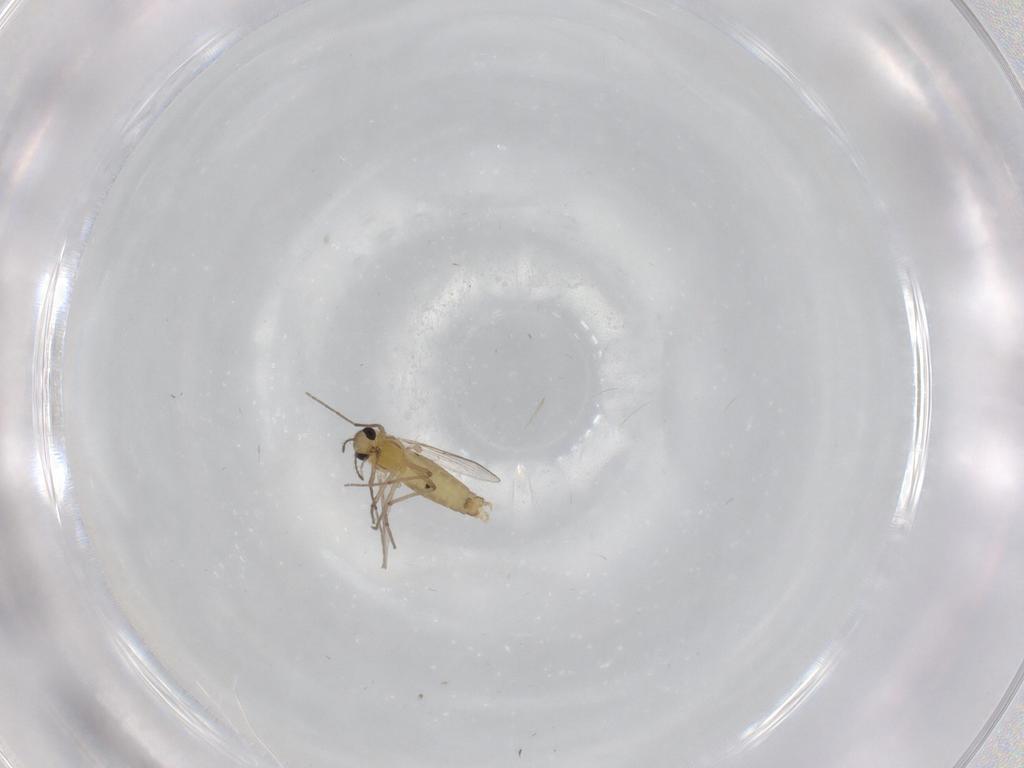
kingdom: Animalia
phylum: Arthropoda
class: Insecta
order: Diptera
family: Chironomidae
